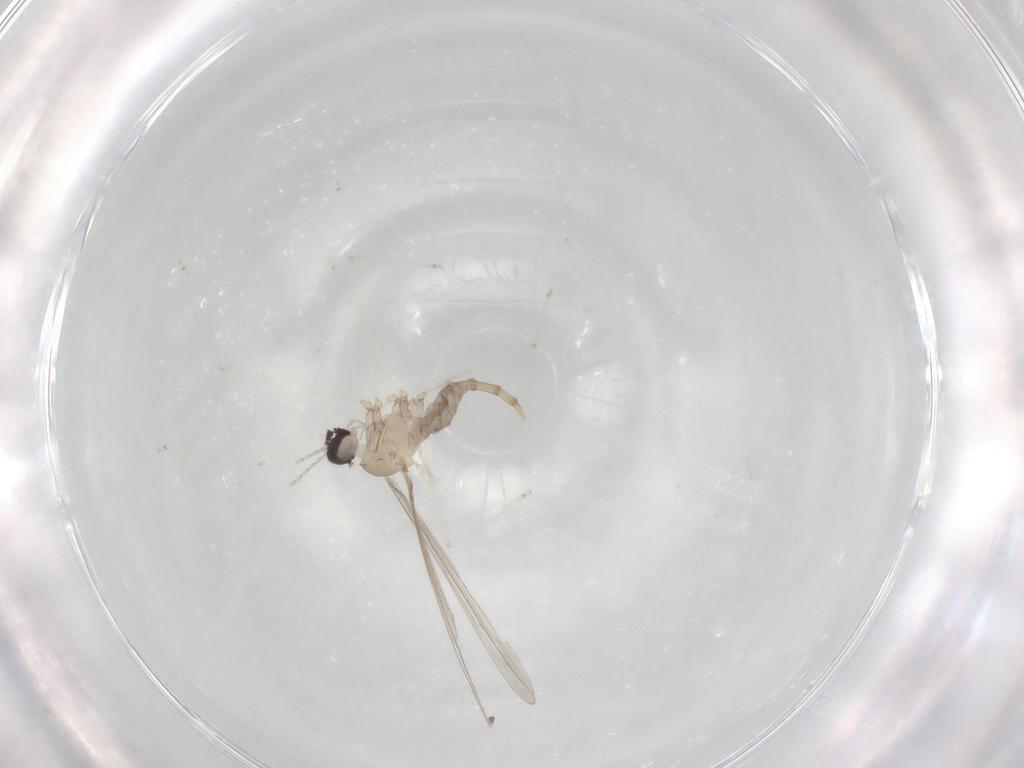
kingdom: Animalia
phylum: Arthropoda
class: Insecta
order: Diptera
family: Cecidomyiidae
